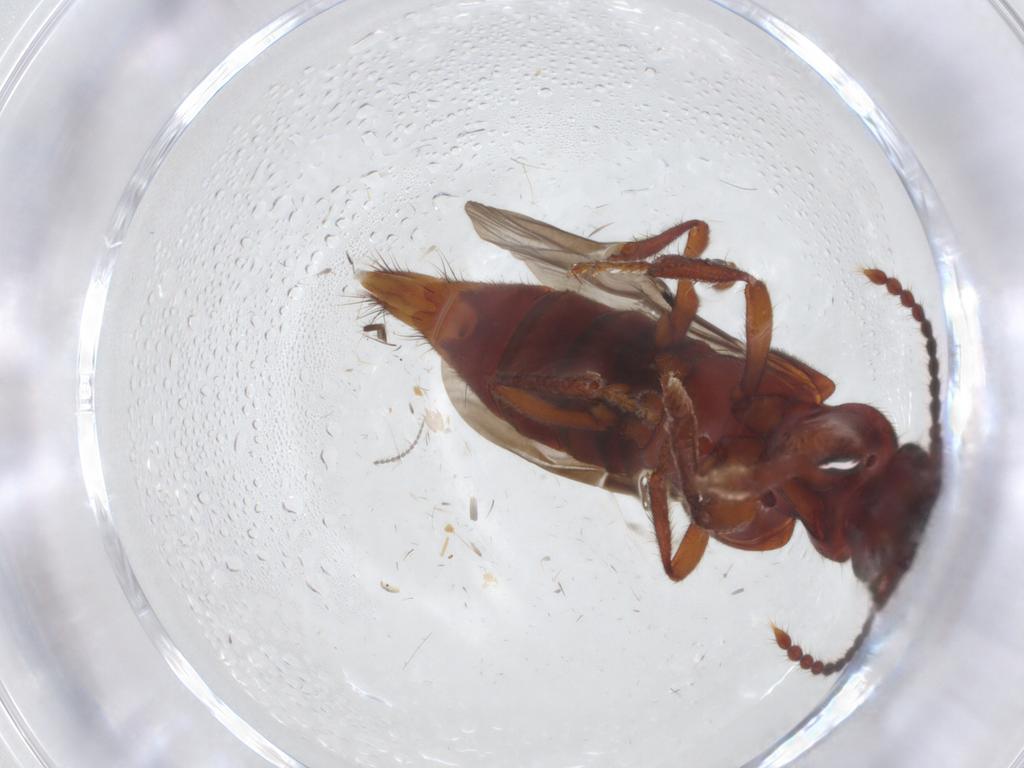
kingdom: Animalia
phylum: Arthropoda
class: Insecta
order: Coleoptera
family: Staphylinidae
